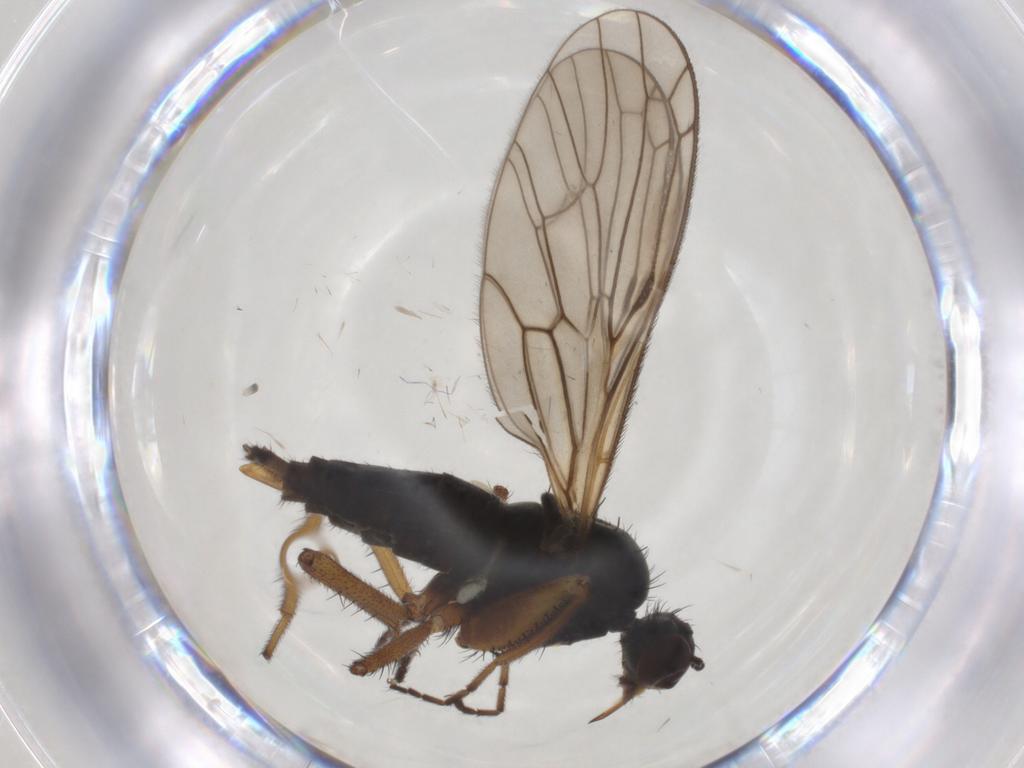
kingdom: Animalia
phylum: Arthropoda
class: Insecta
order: Diptera
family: Empididae
